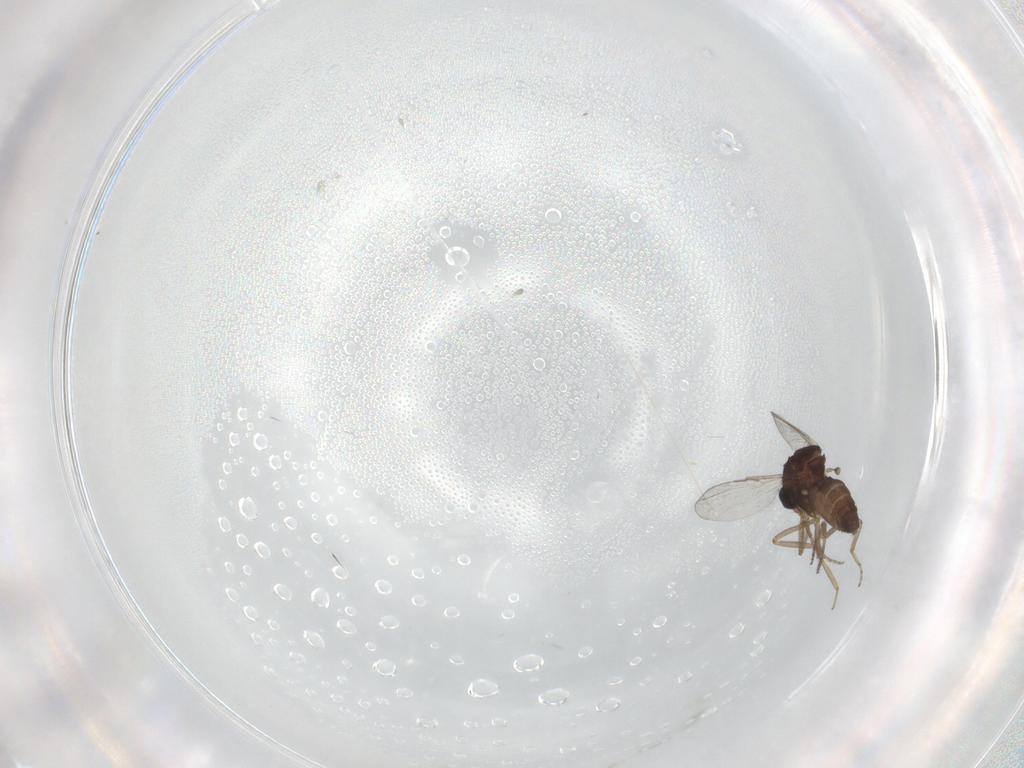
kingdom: Animalia
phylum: Arthropoda
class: Insecta
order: Diptera
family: Ceratopogonidae
